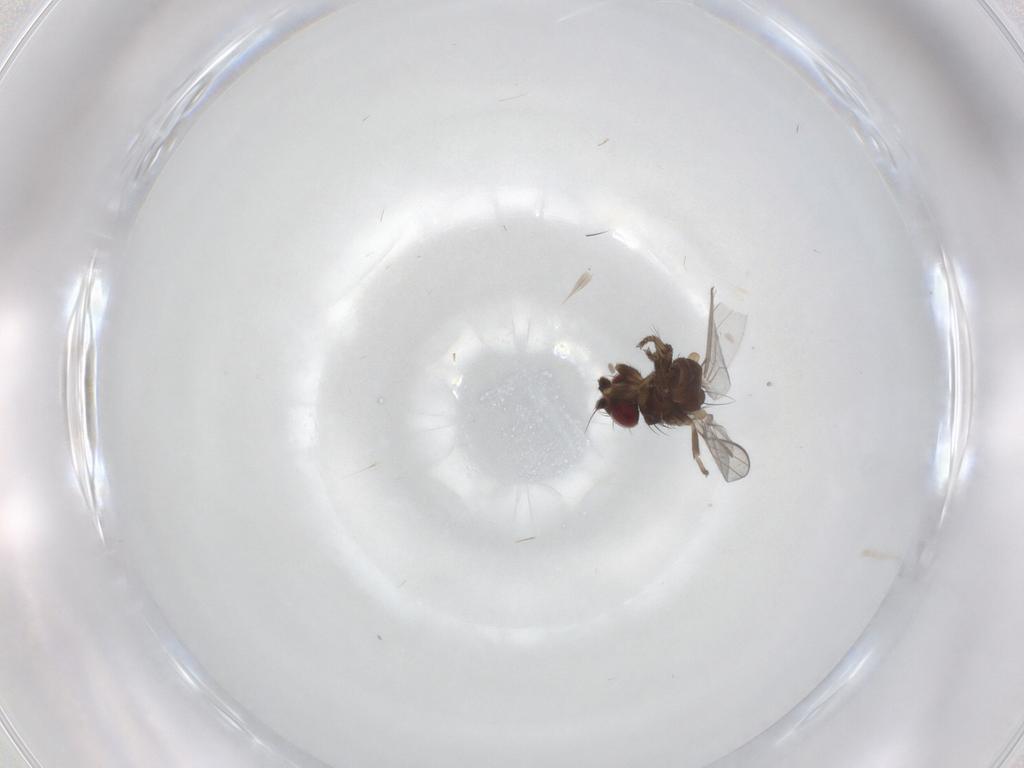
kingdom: Animalia
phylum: Arthropoda
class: Insecta
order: Diptera
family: Milichiidae
